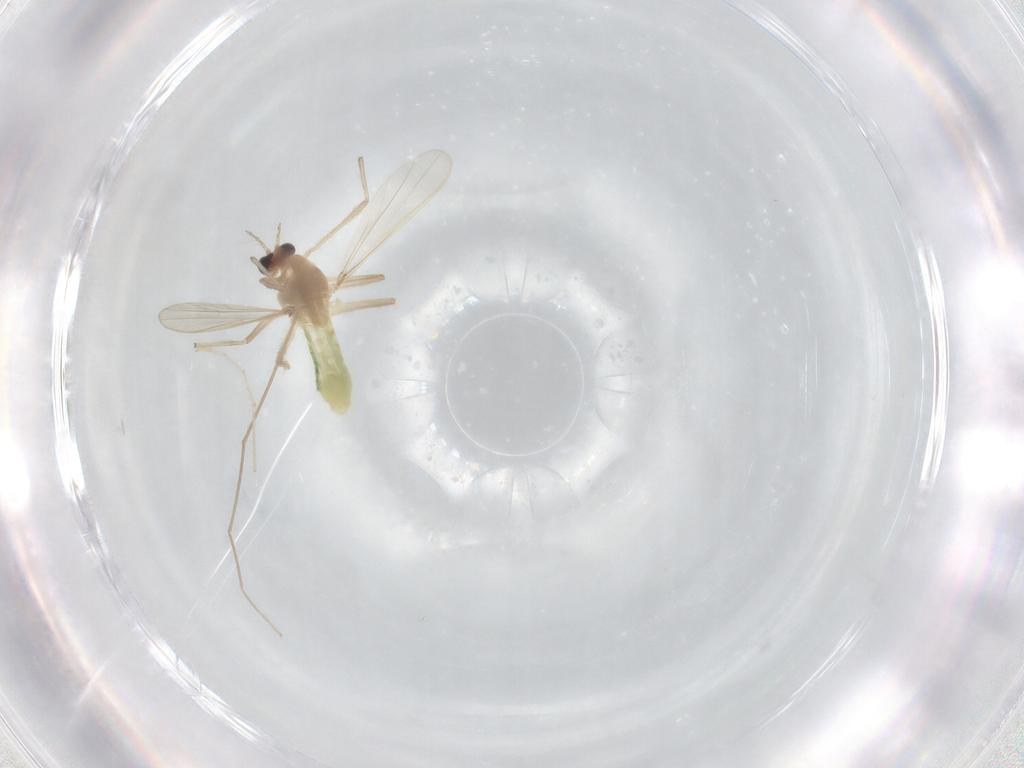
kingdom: Animalia
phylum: Arthropoda
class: Insecta
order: Diptera
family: Chironomidae
